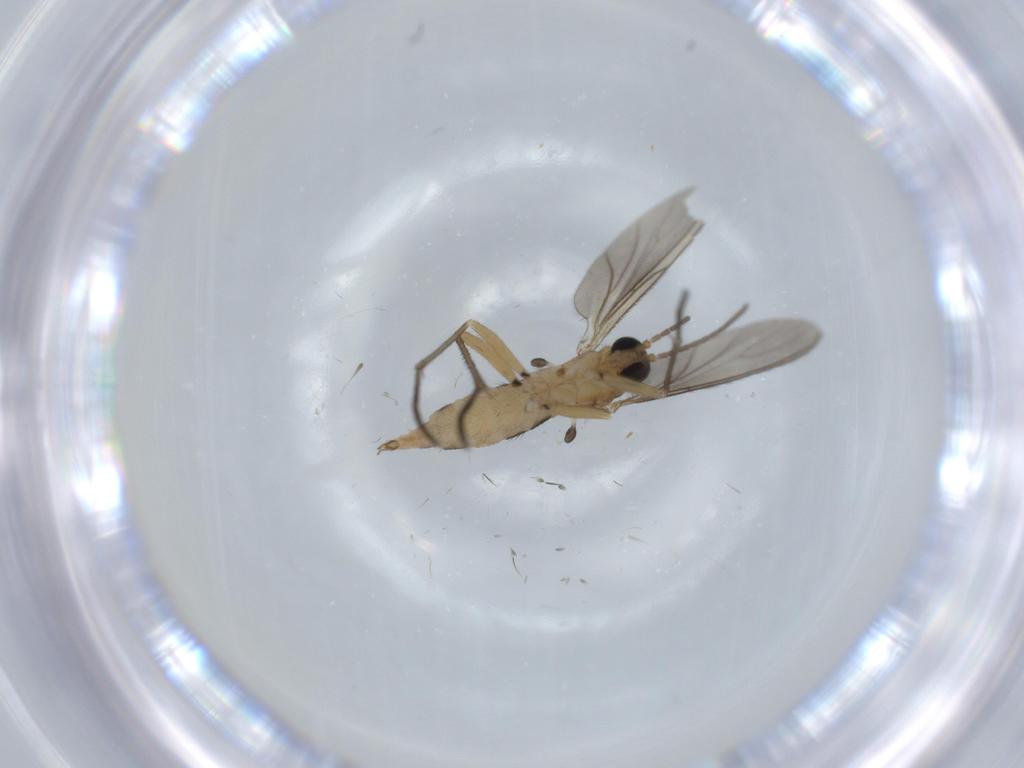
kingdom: Animalia
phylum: Arthropoda
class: Insecta
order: Diptera
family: Sciaridae
